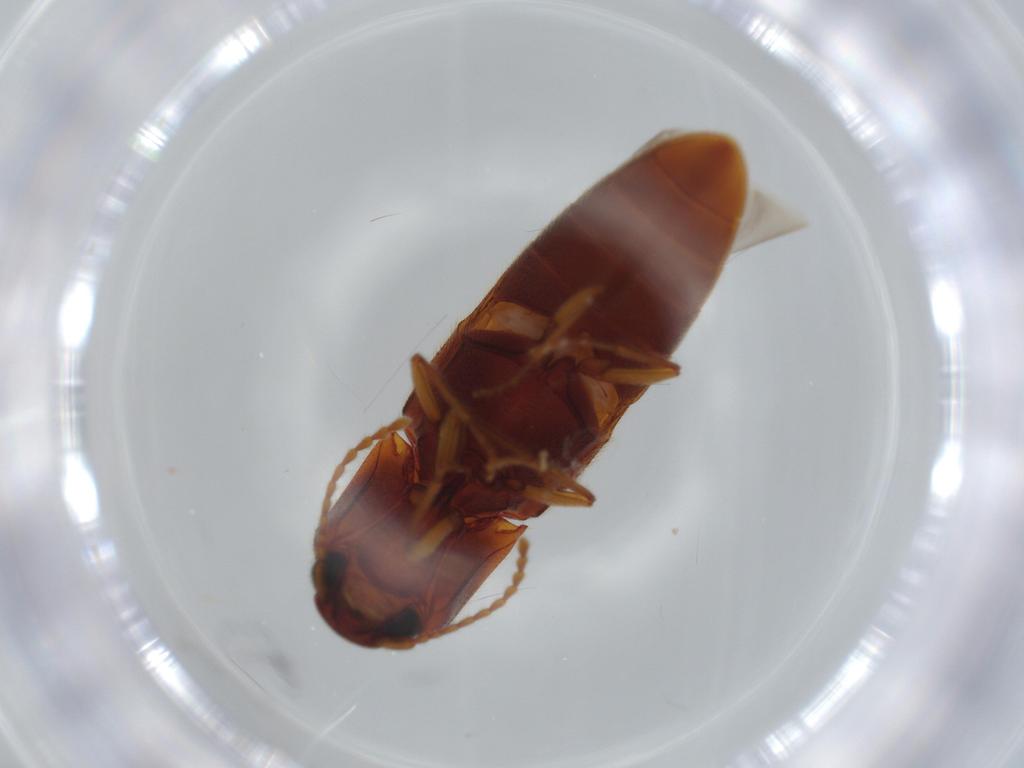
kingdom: Animalia
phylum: Arthropoda
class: Insecta
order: Coleoptera
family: Elateridae
